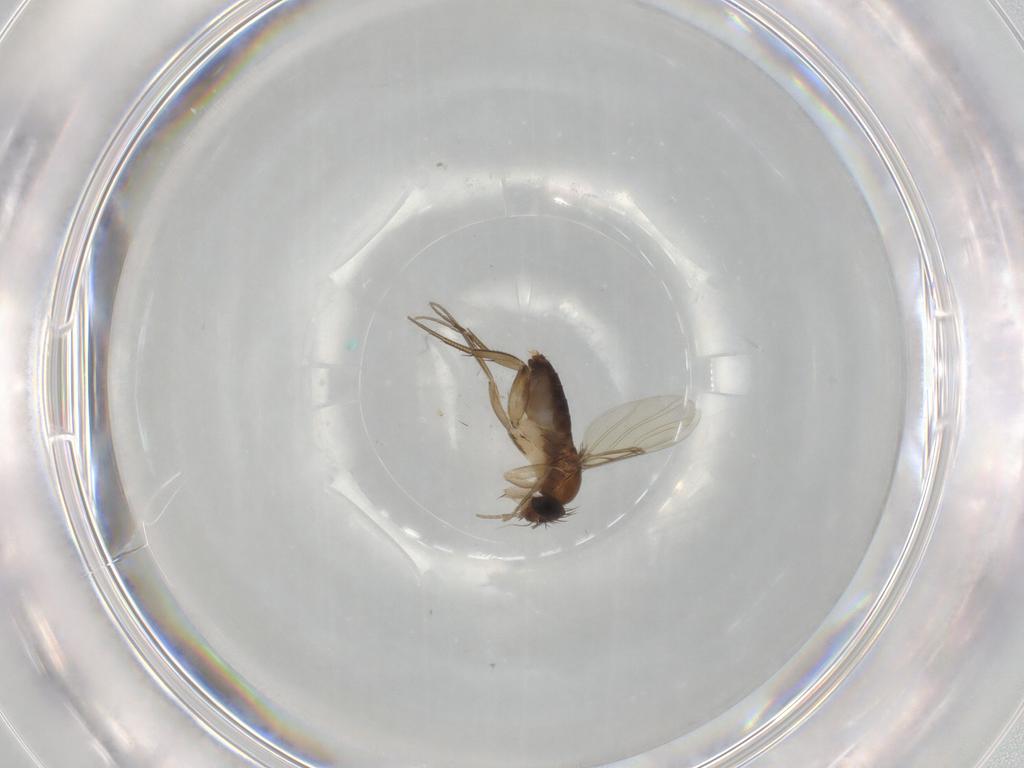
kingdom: Animalia
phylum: Arthropoda
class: Insecta
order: Diptera
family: Phoridae
